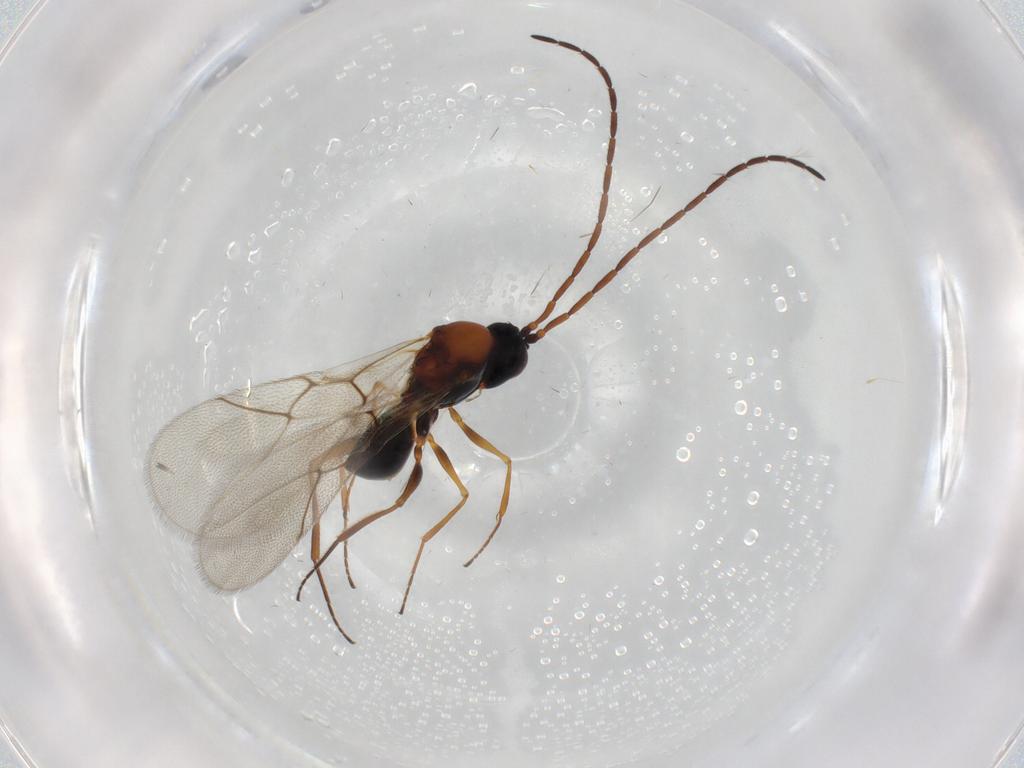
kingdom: Animalia
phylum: Arthropoda
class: Insecta
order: Hymenoptera
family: Figitidae
